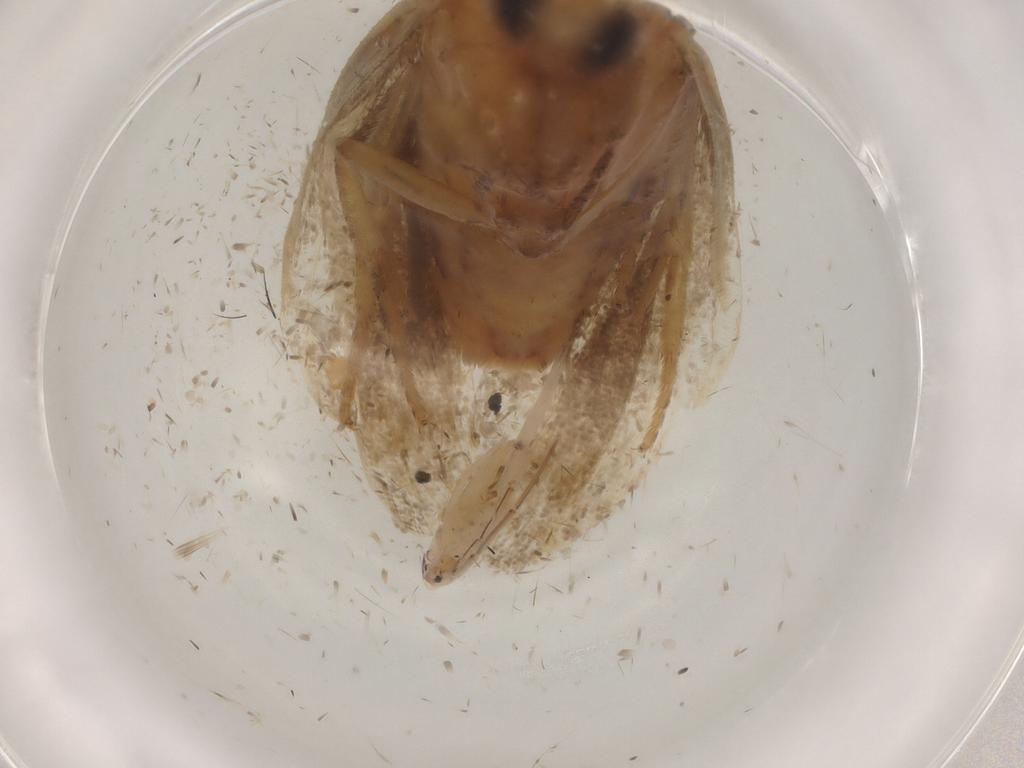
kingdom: Animalia
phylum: Arthropoda
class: Insecta
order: Lepidoptera
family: Tortricidae
